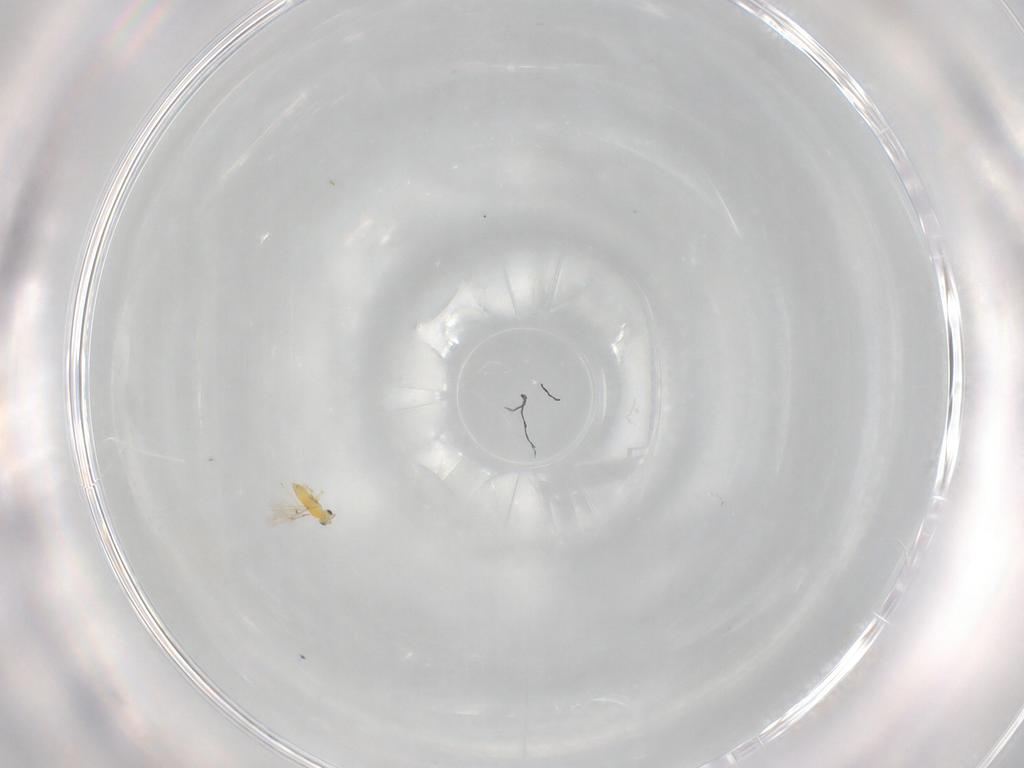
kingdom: Animalia
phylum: Arthropoda
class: Insecta
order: Hymenoptera
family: Trichogrammatidae
